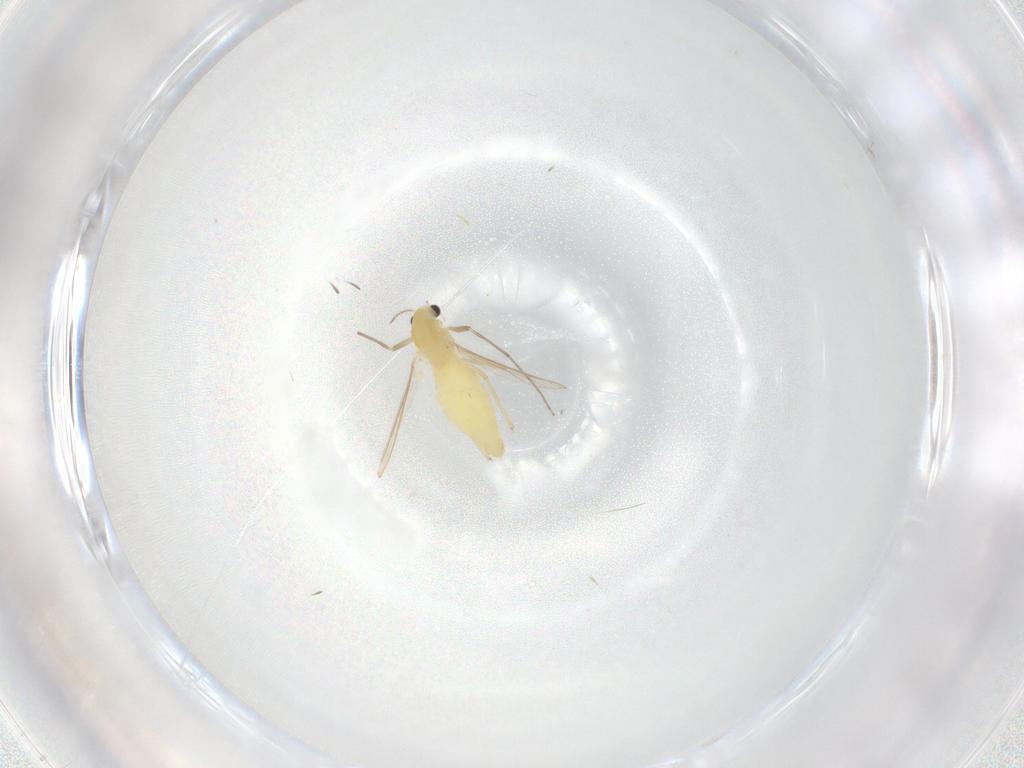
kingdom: Animalia
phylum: Arthropoda
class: Insecta
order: Diptera
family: Chironomidae
